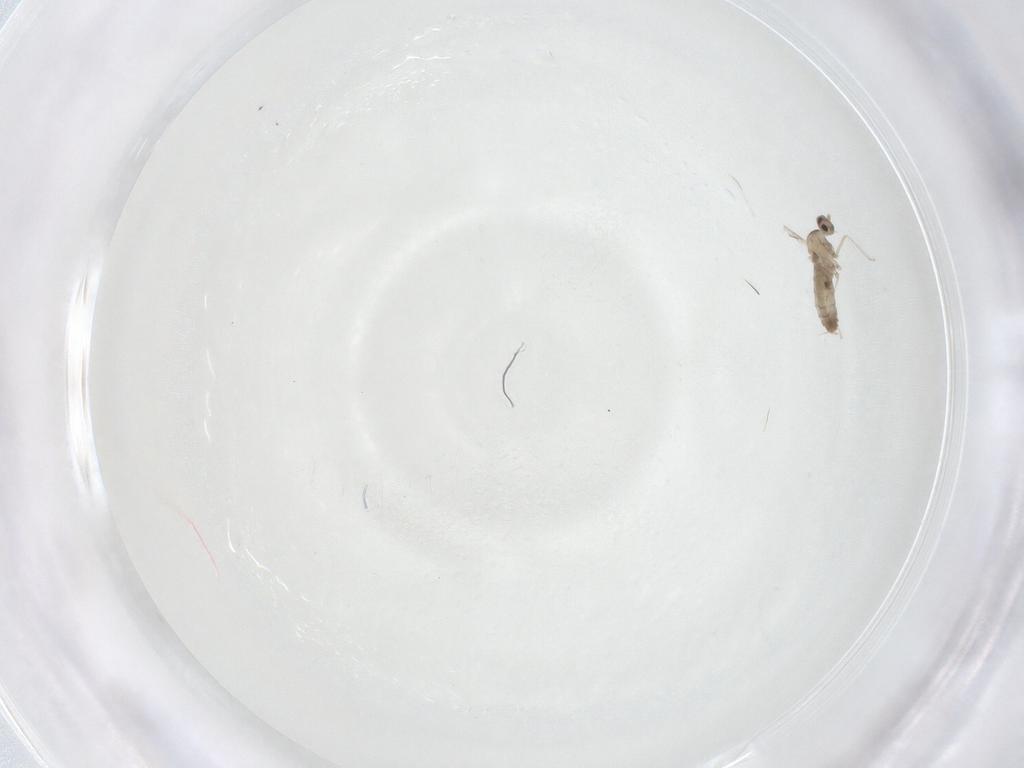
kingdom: Animalia
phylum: Arthropoda
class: Insecta
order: Diptera
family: Cecidomyiidae
